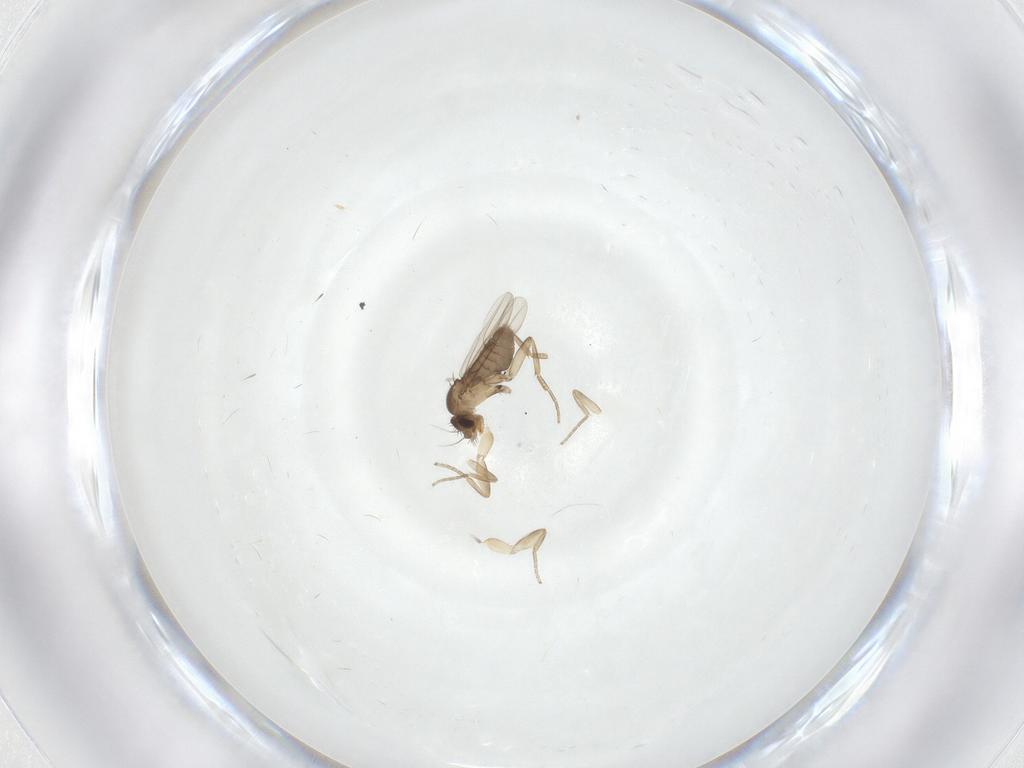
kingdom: Animalia
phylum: Arthropoda
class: Insecta
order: Diptera
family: Phoridae
